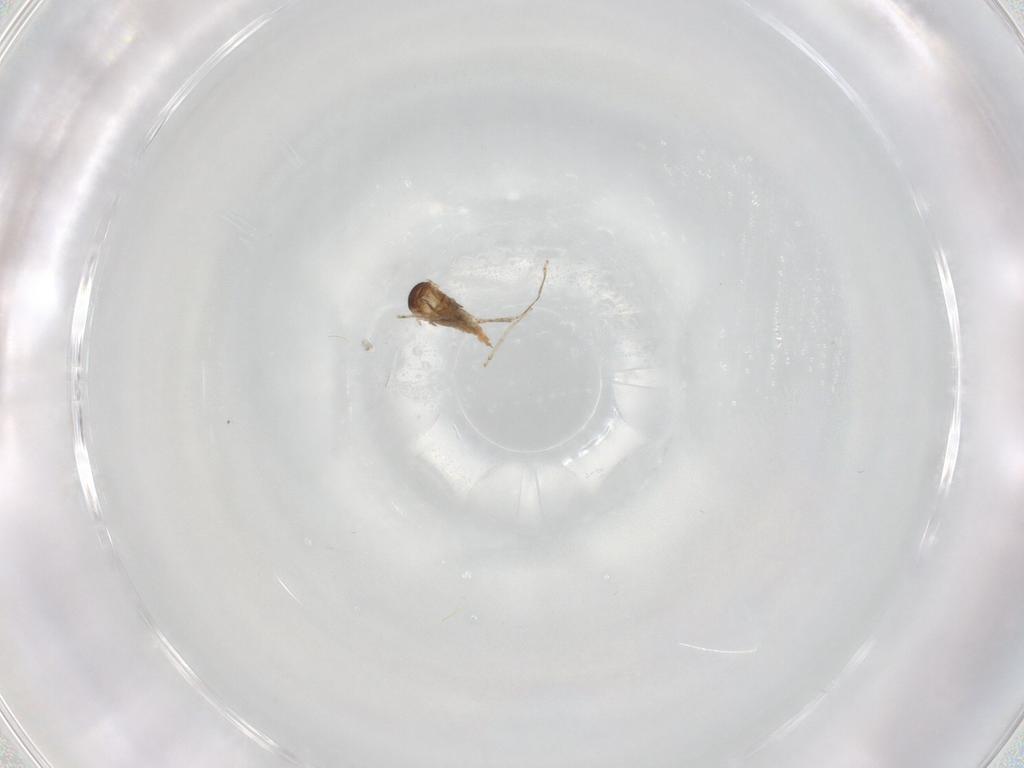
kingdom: Animalia
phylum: Arthropoda
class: Insecta
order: Diptera
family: Cecidomyiidae
